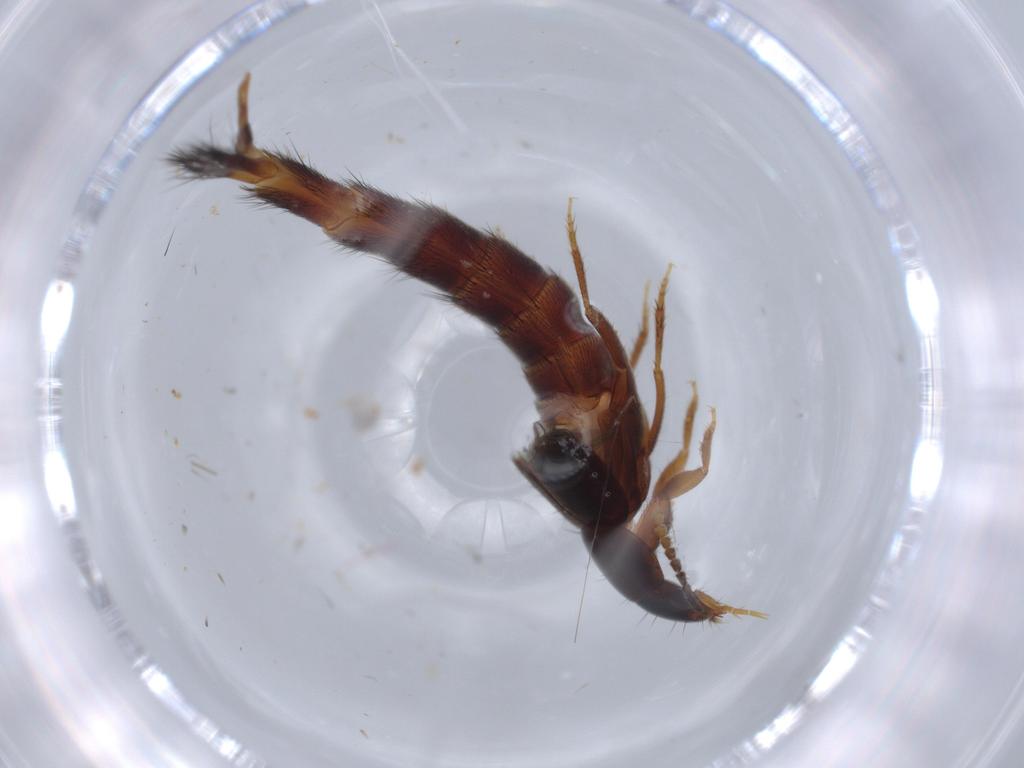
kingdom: Animalia
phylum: Arthropoda
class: Insecta
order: Coleoptera
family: Staphylinidae
